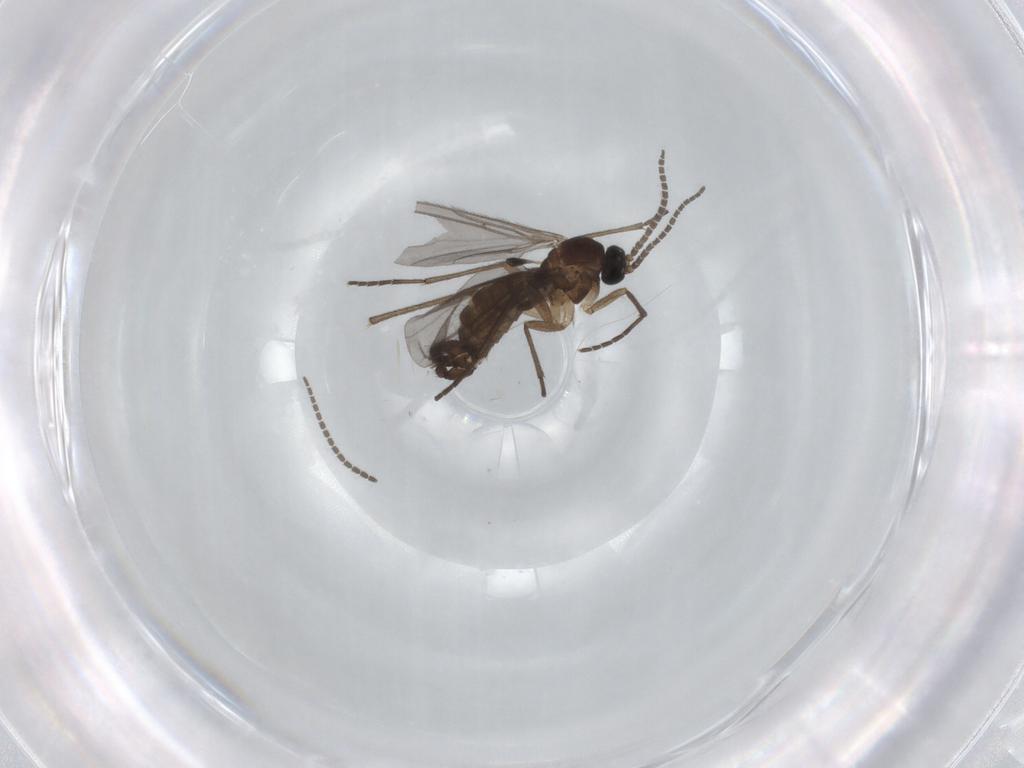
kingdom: Animalia
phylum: Arthropoda
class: Insecta
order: Diptera
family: Sciaridae
